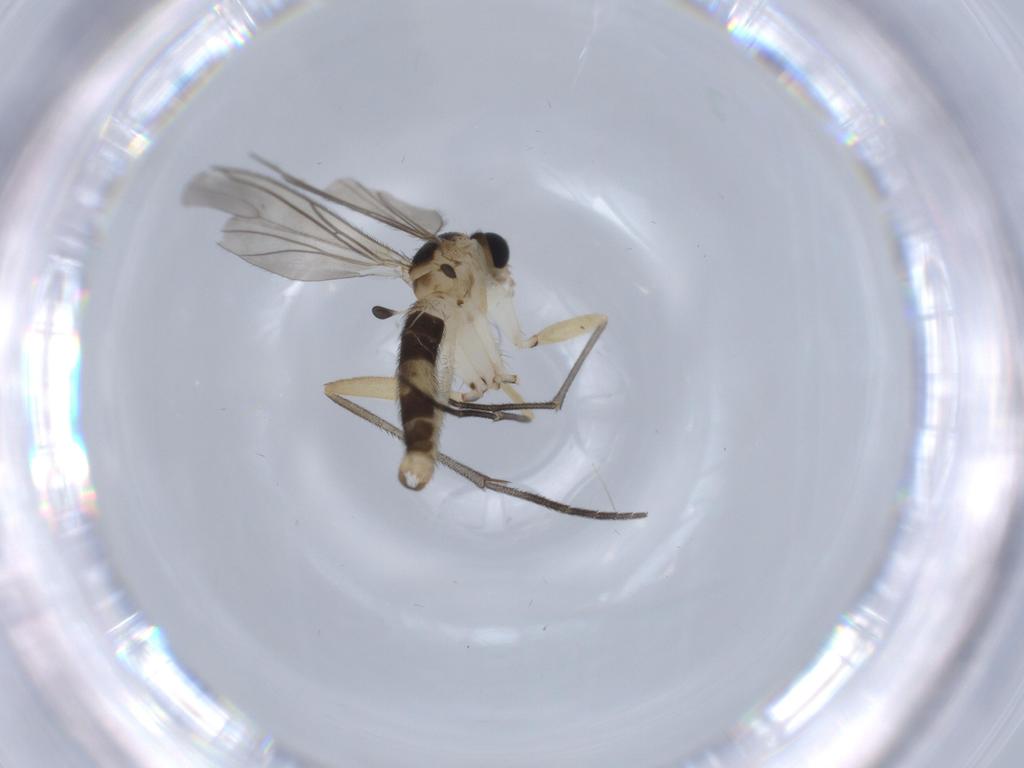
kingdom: Animalia
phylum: Arthropoda
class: Insecta
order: Diptera
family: Sciaridae
